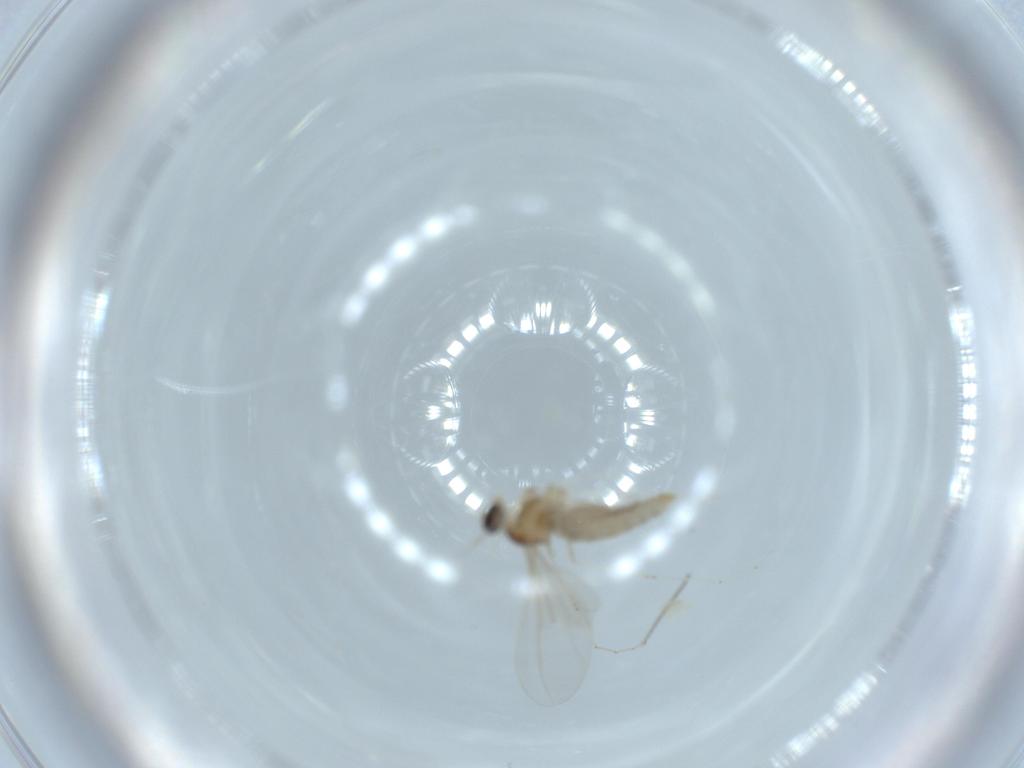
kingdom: Animalia
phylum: Arthropoda
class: Insecta
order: Diptera
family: Cecidomyiidae
